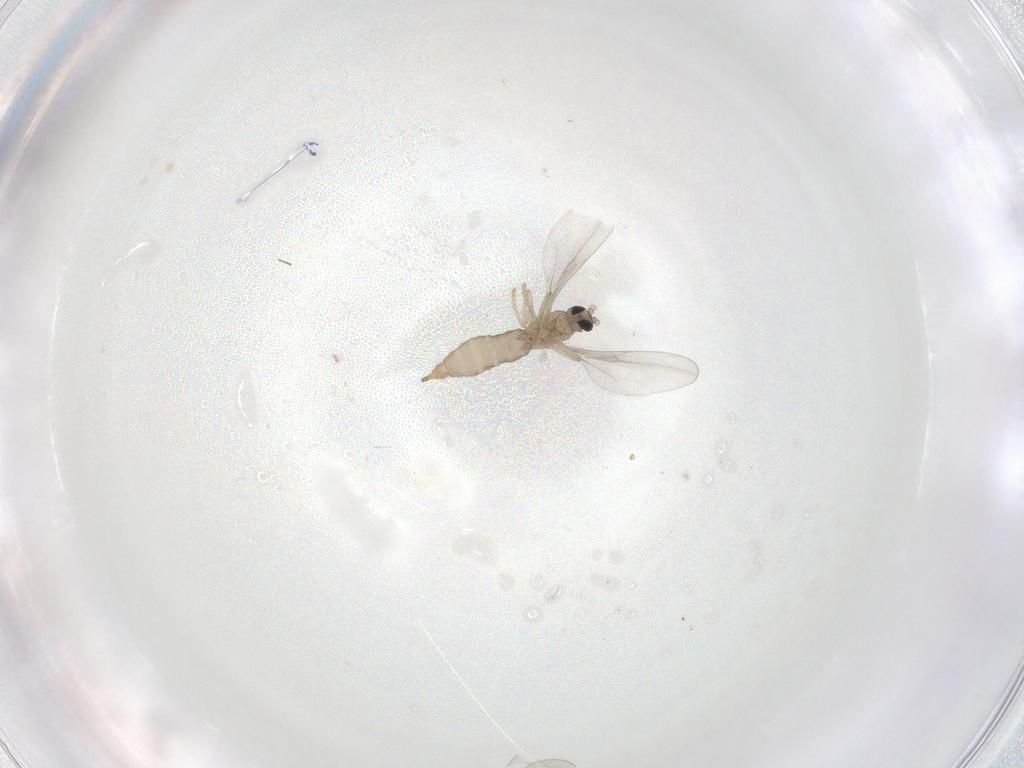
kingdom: Animalia
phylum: Arthropoda
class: Insecta
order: Diptera
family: Cecidomyiidae
